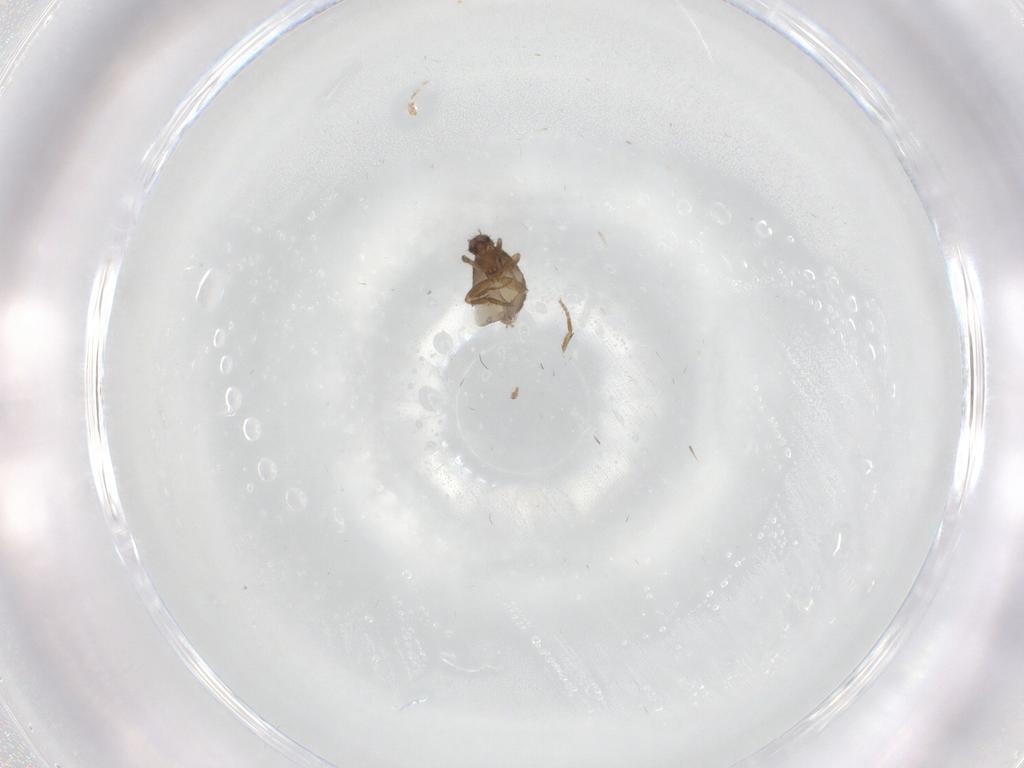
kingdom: Animalia
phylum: Arthropoda
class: Insecta
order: Diptera
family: Phoridae
